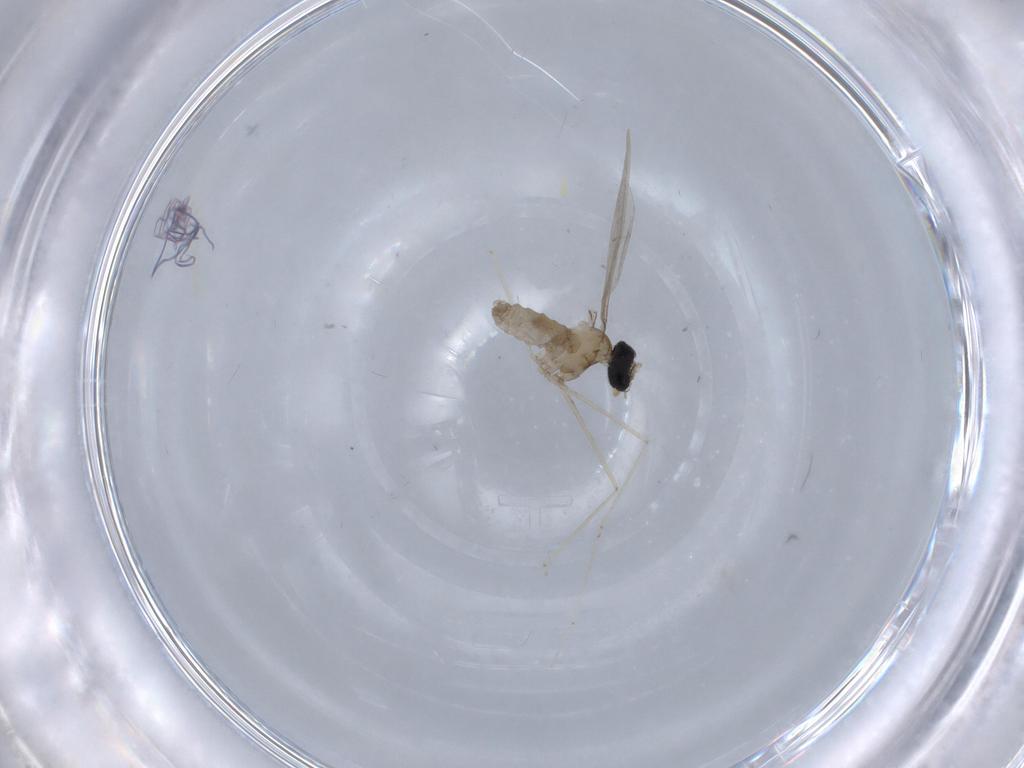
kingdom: Animalia
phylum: Arthropoda
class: Insecta
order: Diptera
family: Cecidomyiidae
